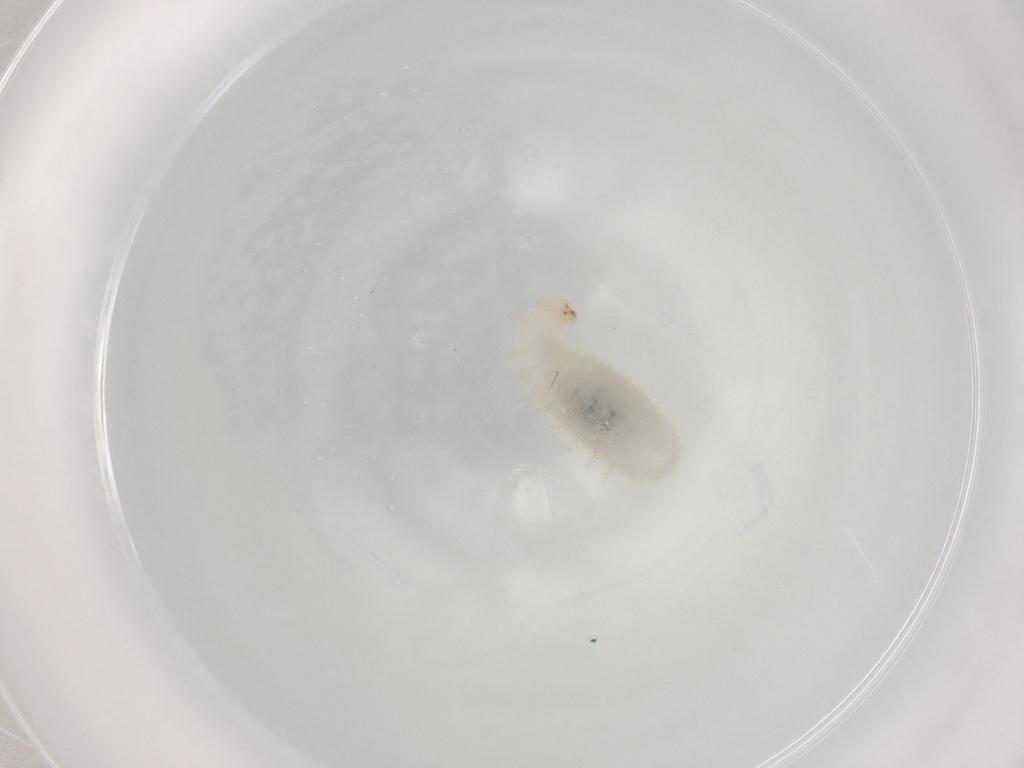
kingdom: Animalia
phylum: Arthropoda
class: Insecta
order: Hymenoptera
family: Formicidae
